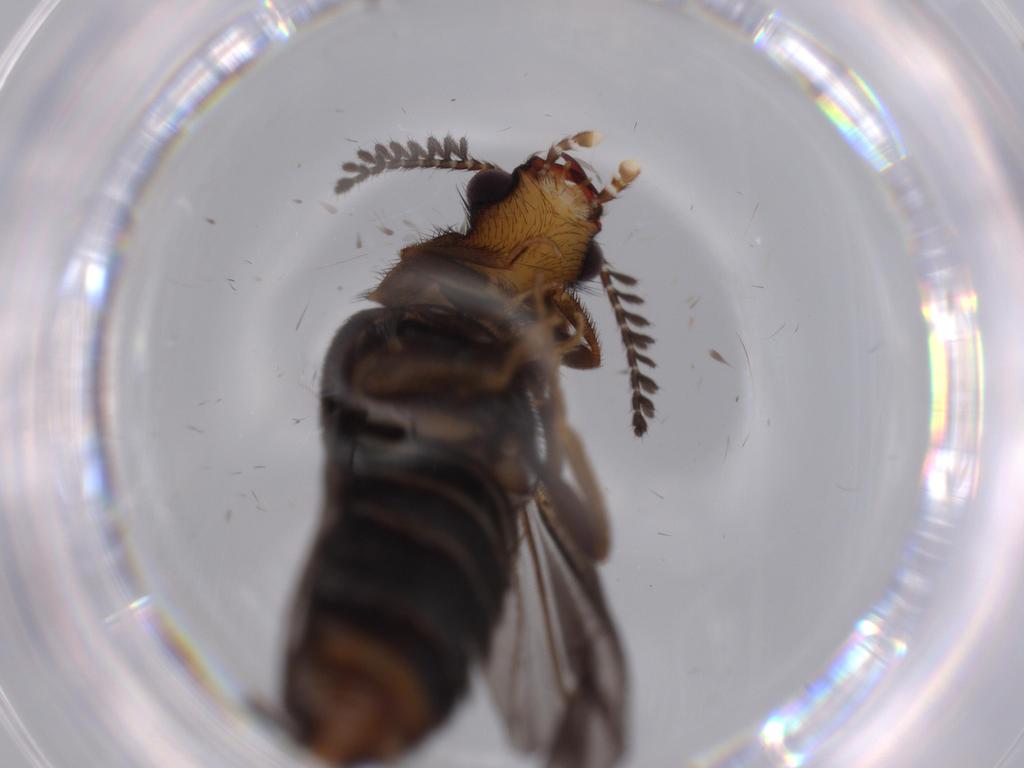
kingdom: Animalia
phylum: Arthropoda
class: Insecta
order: Coleoptera
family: Phengodidae
